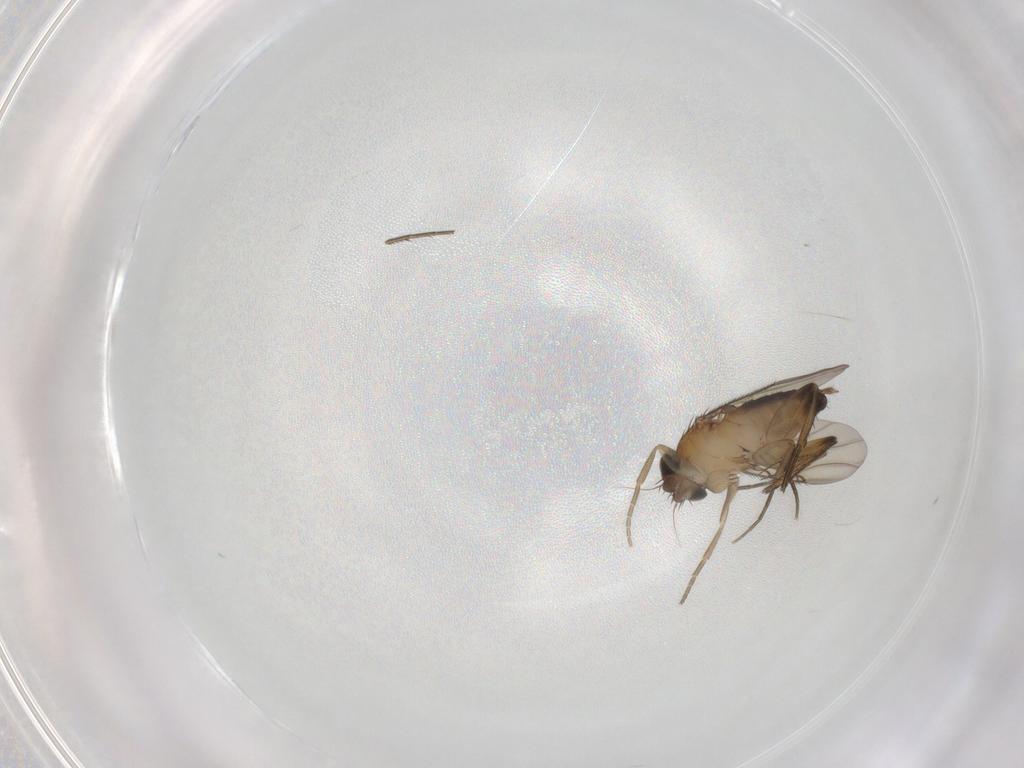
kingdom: Animalia
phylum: Arthropoda
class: Insecta
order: Diptera
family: Phoridae
